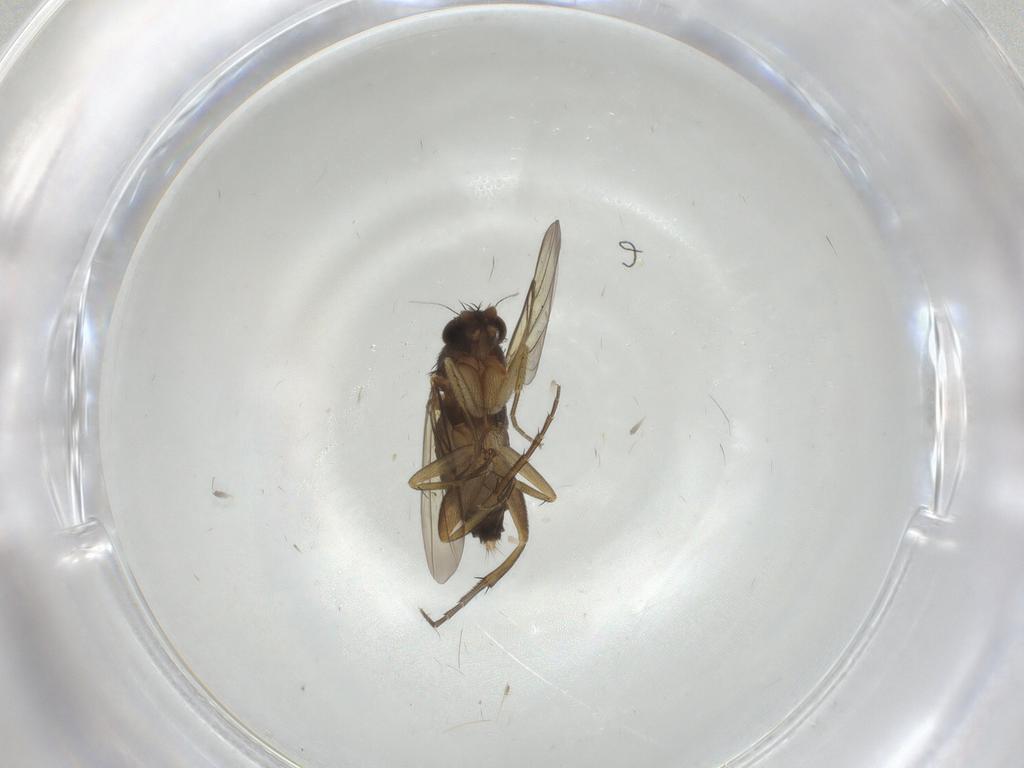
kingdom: Animalia
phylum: Arthropoda
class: Insecta
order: Diptera
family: Phoridae
